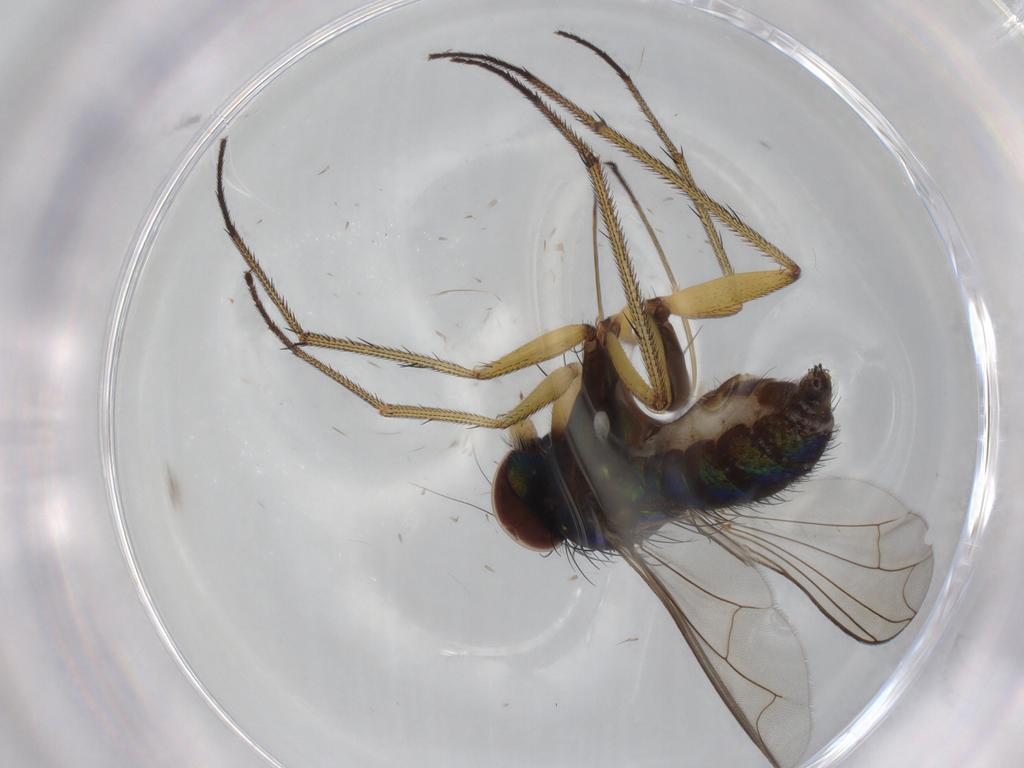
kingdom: Animalia
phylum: Arthropoda
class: Insecta
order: Diptera
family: Dolichopodidae
